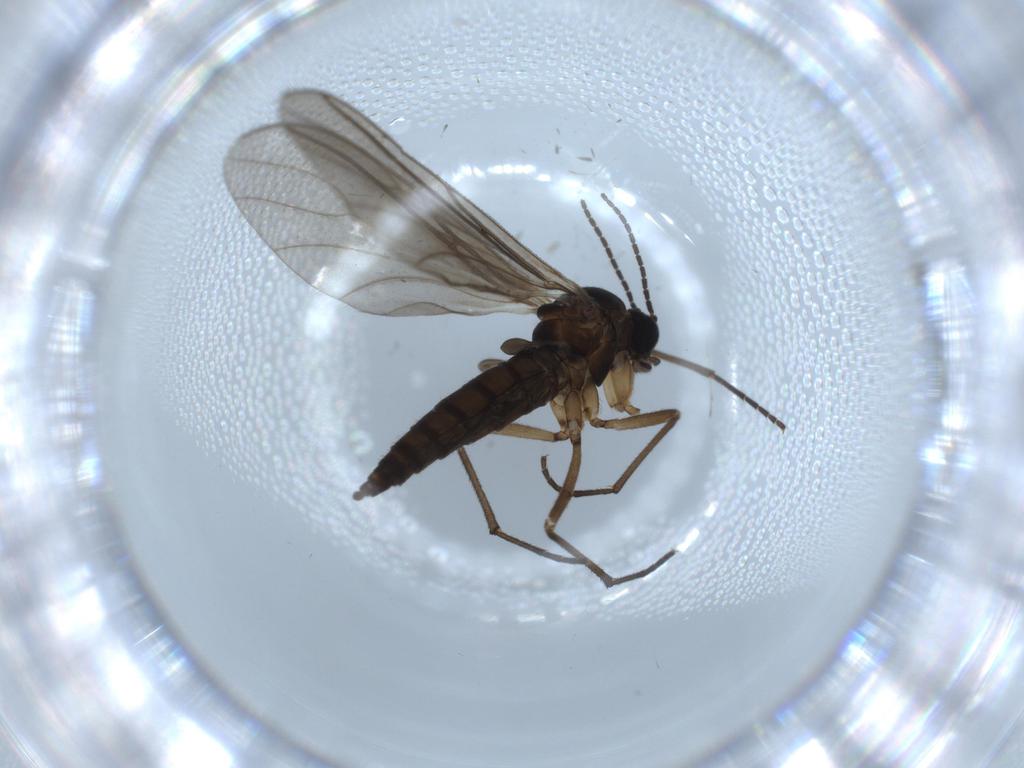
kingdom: Animalia
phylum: Arthropoda
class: Insecta
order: Diptera
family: Sciaridae
